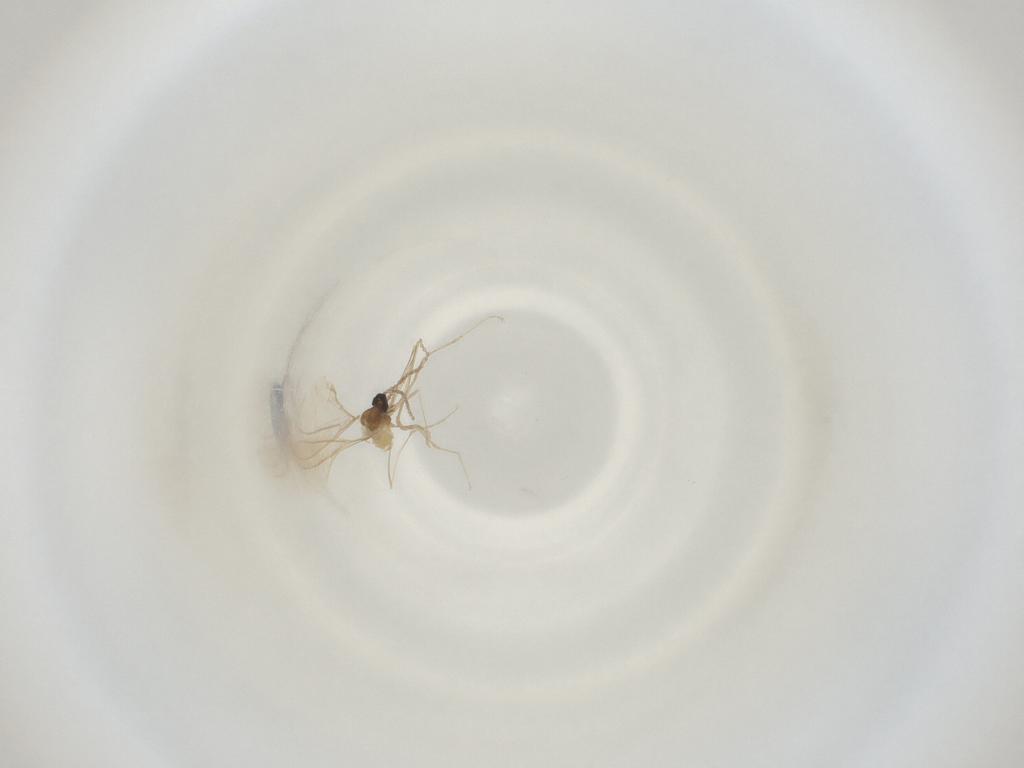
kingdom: Animalia
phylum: Arthropoda
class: Insecta
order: Diptera
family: Cecidomyiidae
